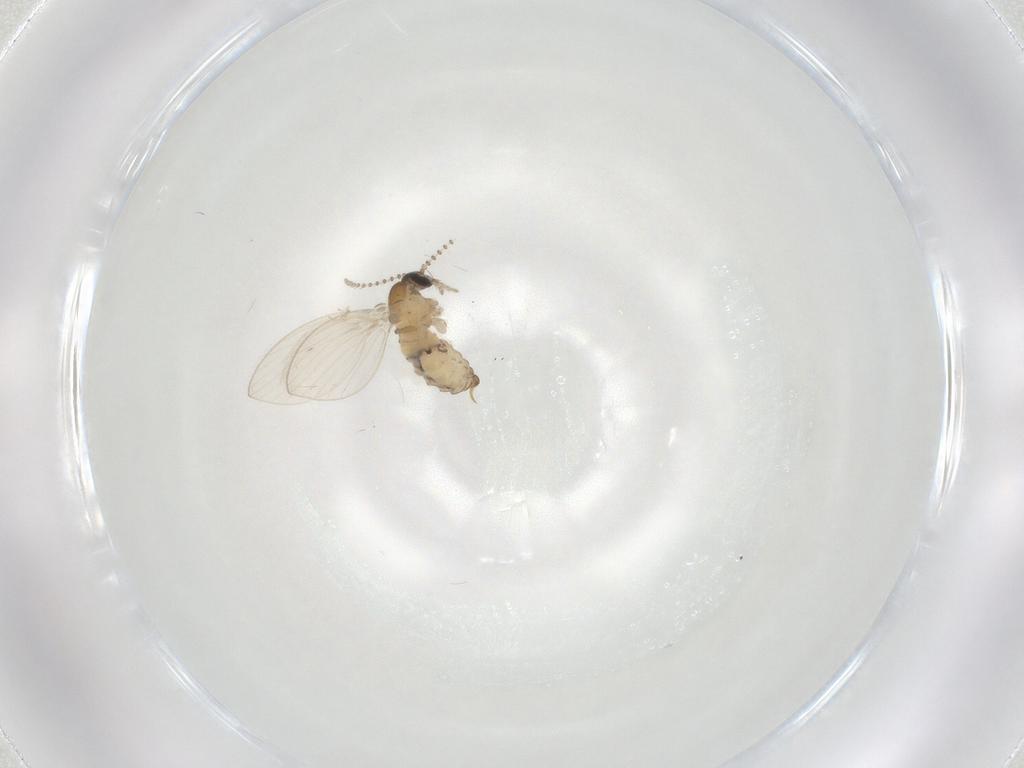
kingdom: Animalia
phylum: Arthropoda
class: Insecta
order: Diptera
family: Psychodidae
